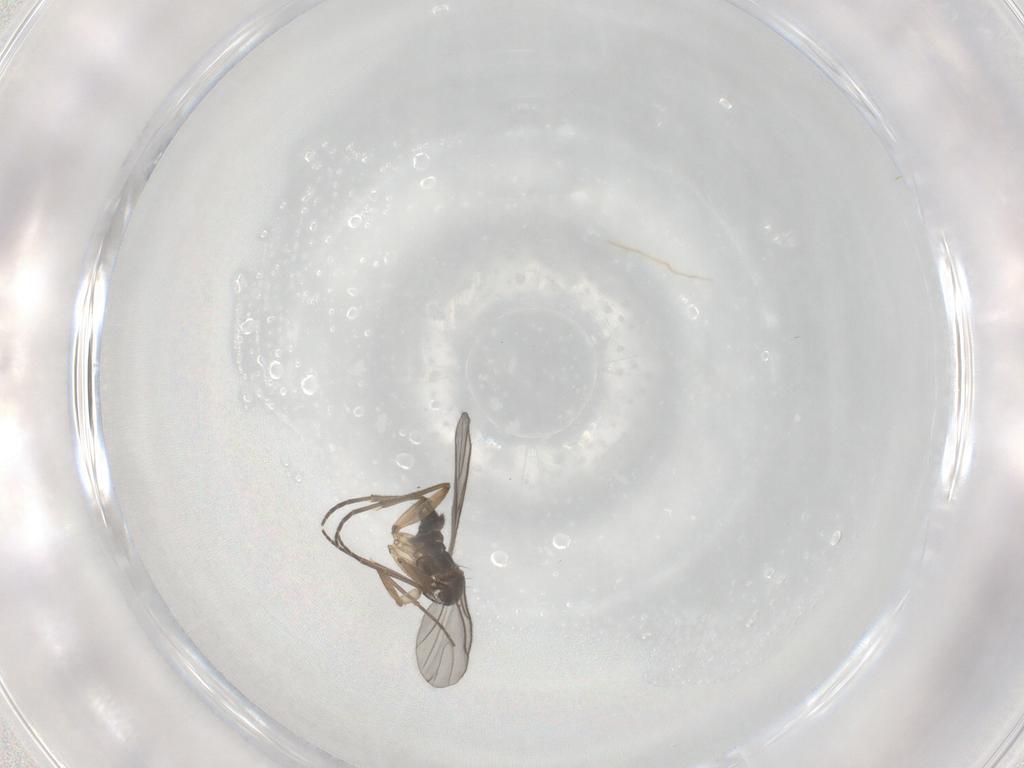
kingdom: Animalia
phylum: Arthropoda
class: Insecta
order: Diptera
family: Sciaridae
